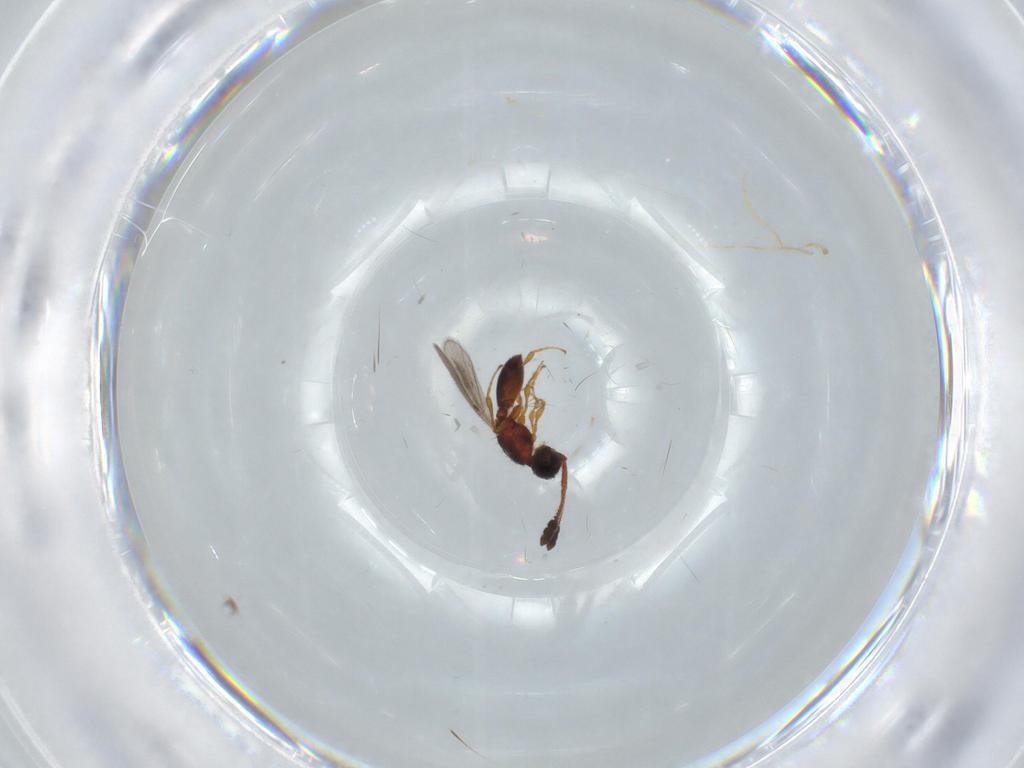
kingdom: Animalia
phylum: Arthropoda
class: Insecta
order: Hymenoptera
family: Diapriidae
